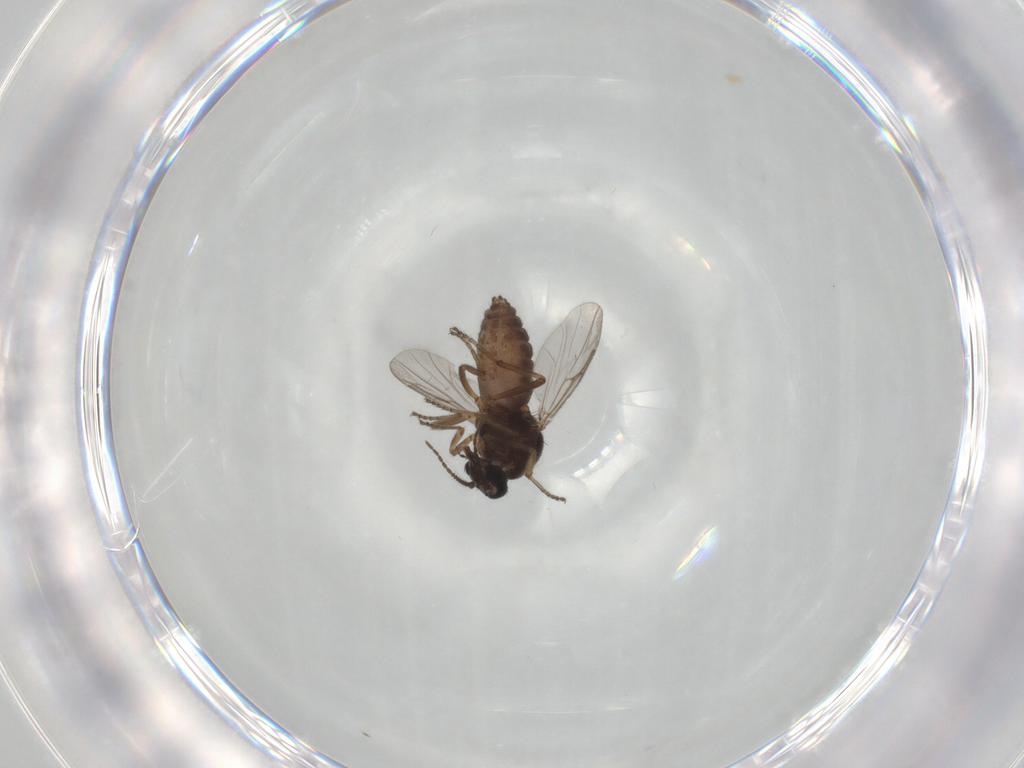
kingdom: Animalia
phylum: Arthropoda
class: Insecta
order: Diptera
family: Ceratopogonidae
